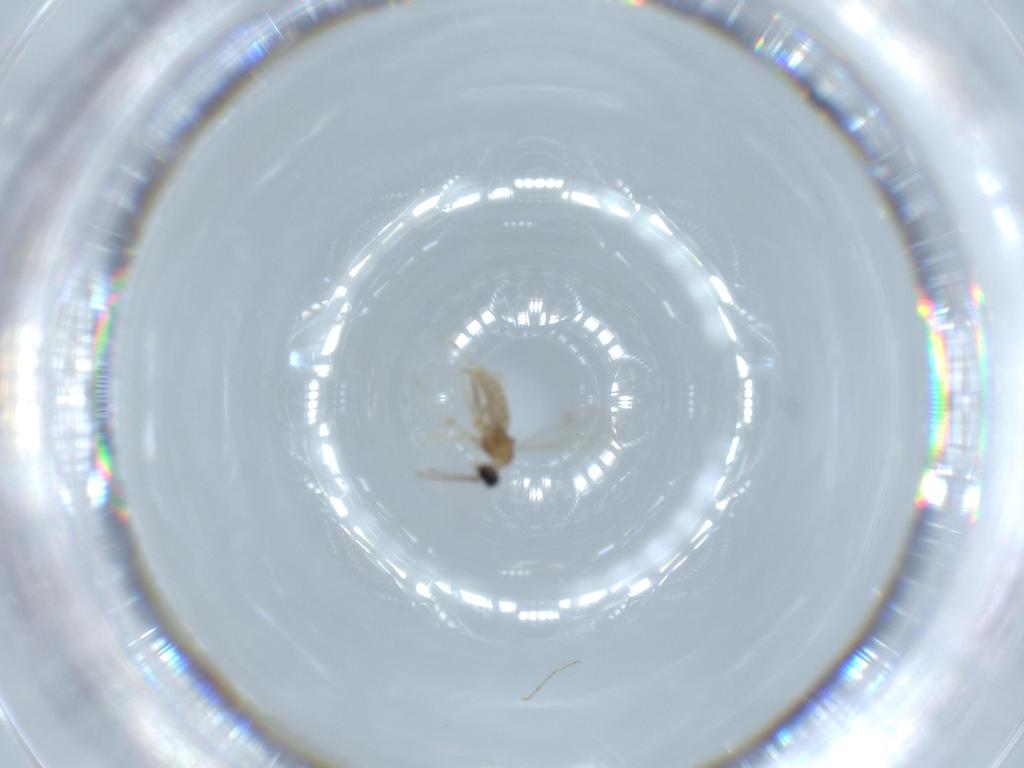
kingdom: Animalia
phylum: Arthropoda
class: Insecta
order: Diptera
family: Cecidomyiidae
